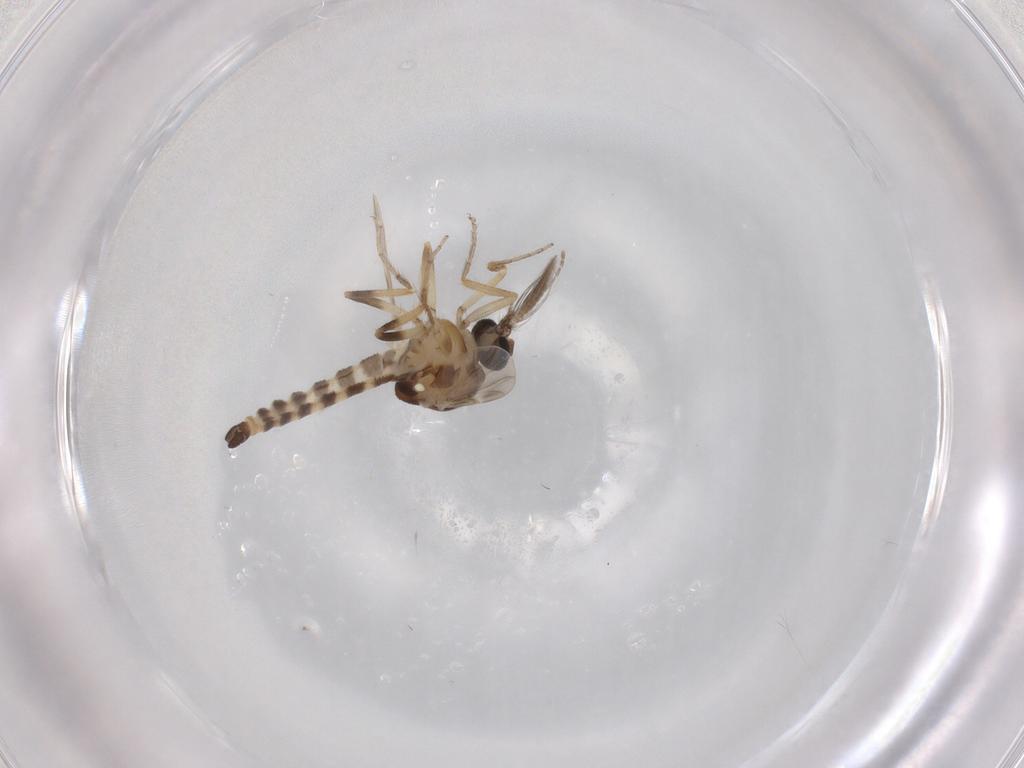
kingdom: Animalia
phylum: Arthropoda
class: Insecta
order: Diptera
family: Ceratopogonidae
